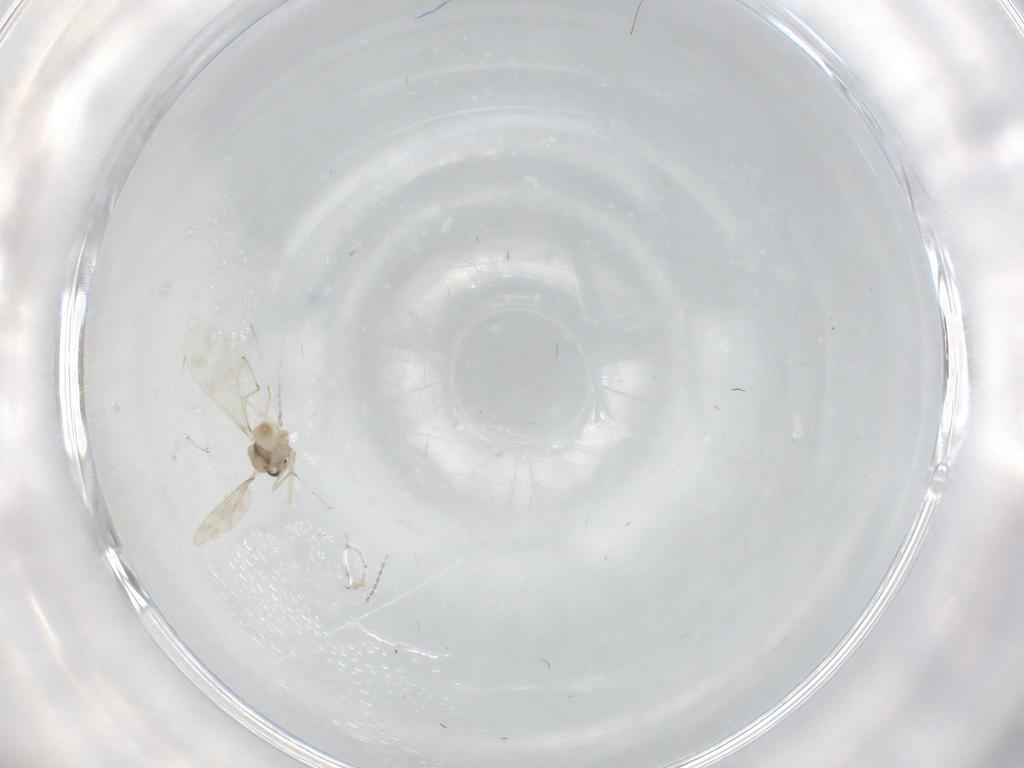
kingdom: Animalia
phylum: Arthropoda
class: Insecta
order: Diptera
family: Cecidomyiidae
